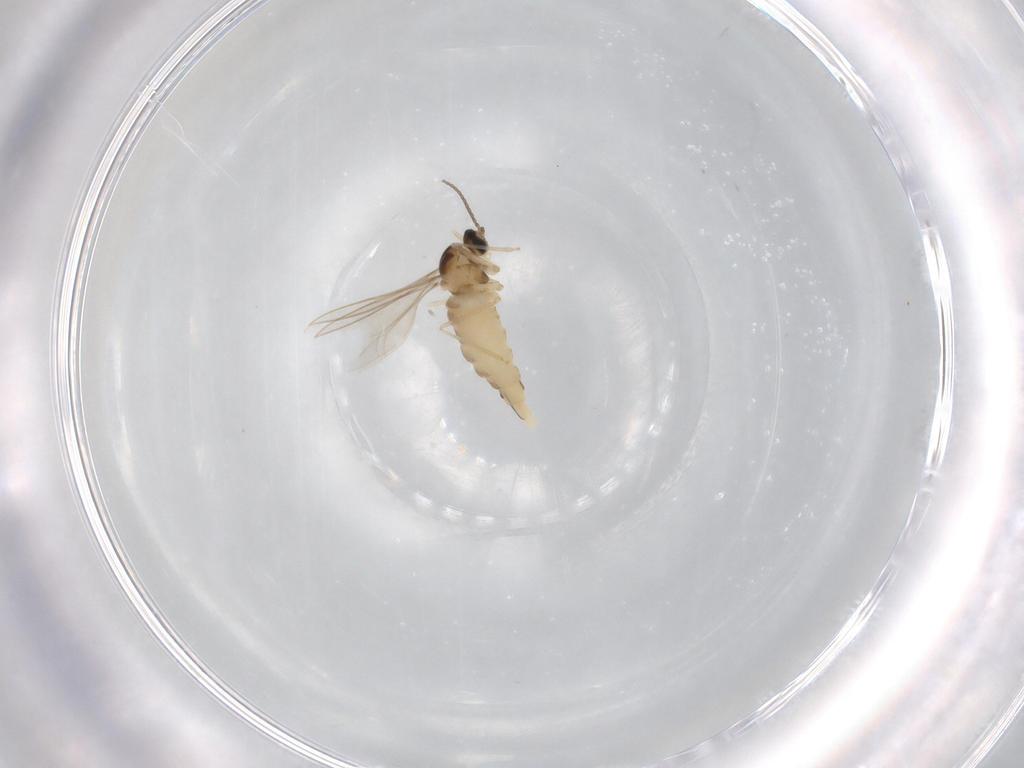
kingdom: Animalia
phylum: Arthropoda
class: Insecta
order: Diptera
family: Cecidomyiidae
